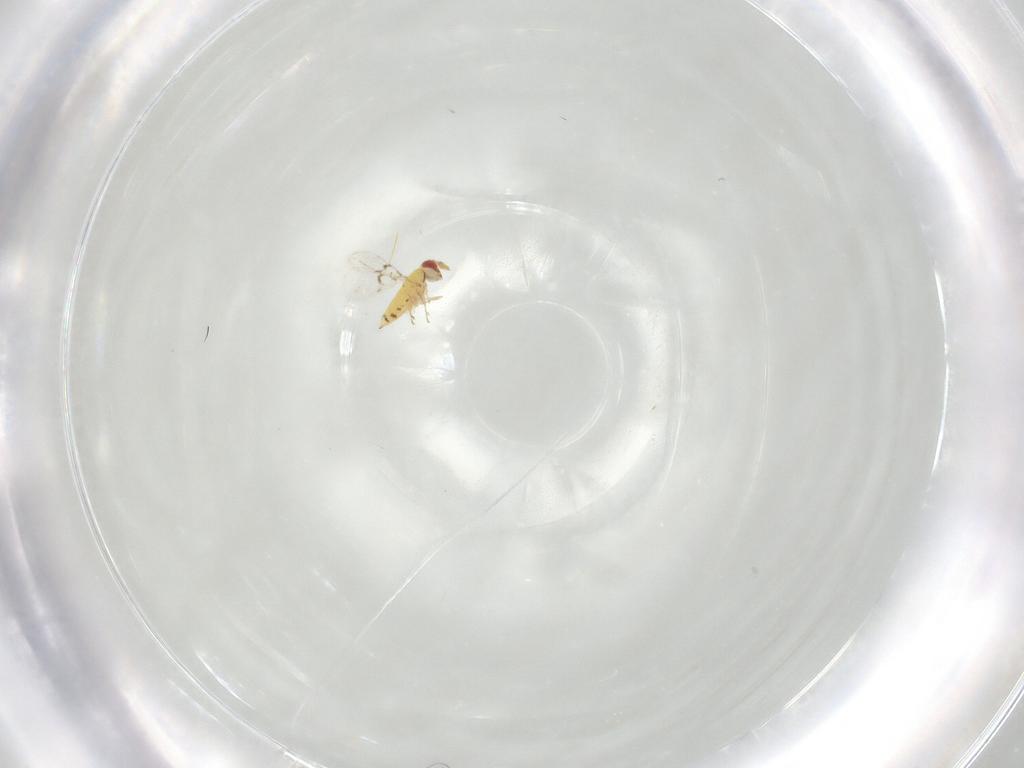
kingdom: Animalia
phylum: Arthropoda
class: Insecta
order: Hymenoptera
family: Trichogrammatidae
